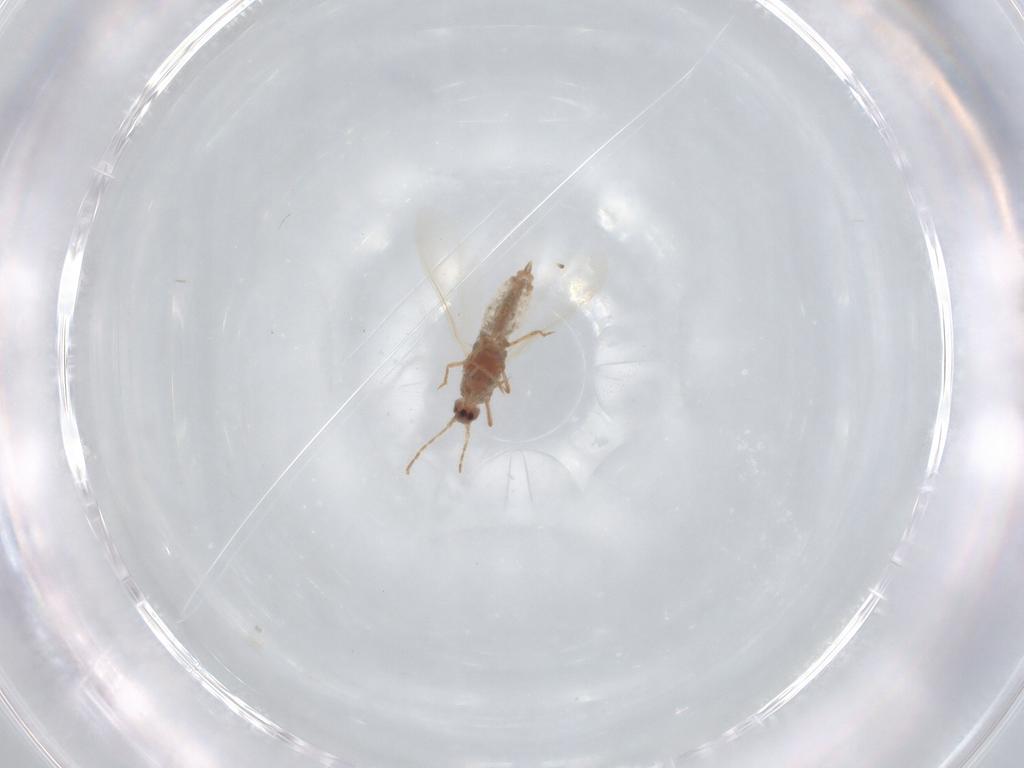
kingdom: Animalia
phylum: Arthropoda
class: Insecta
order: Diptera
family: Phoridae
